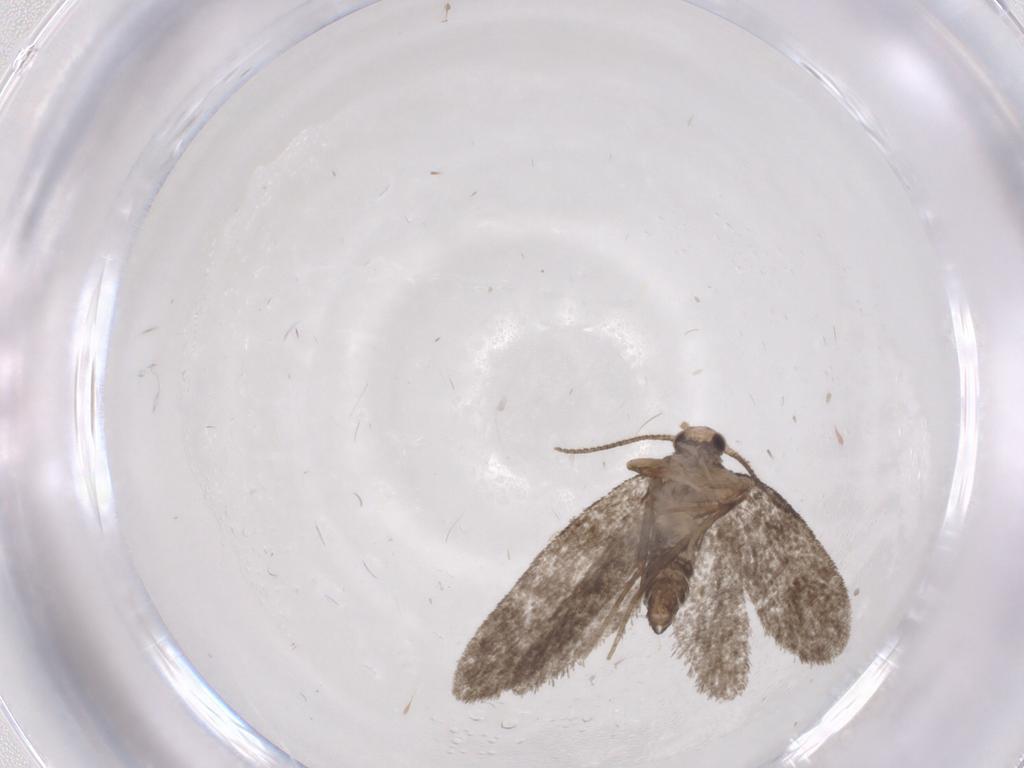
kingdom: Animalia
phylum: Arthropoda
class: Insecta
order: Lepidoptera
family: Psychidae
